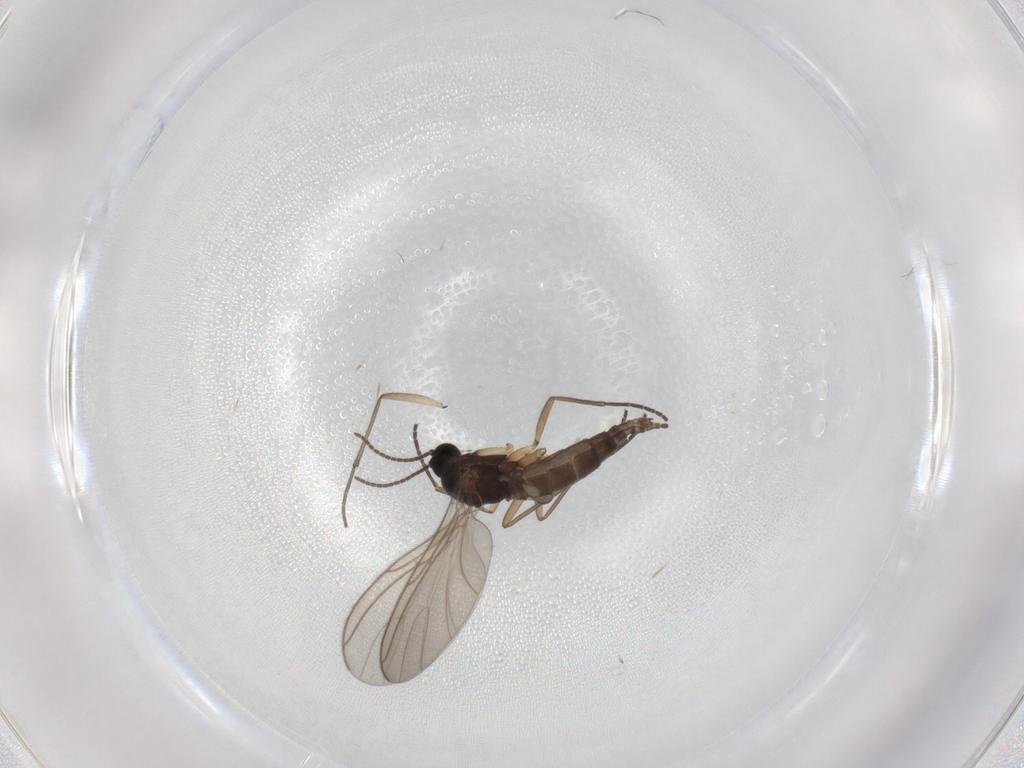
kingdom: Animalia
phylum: Arthropoda
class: Insecta
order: Diptera
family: Sciaridae
